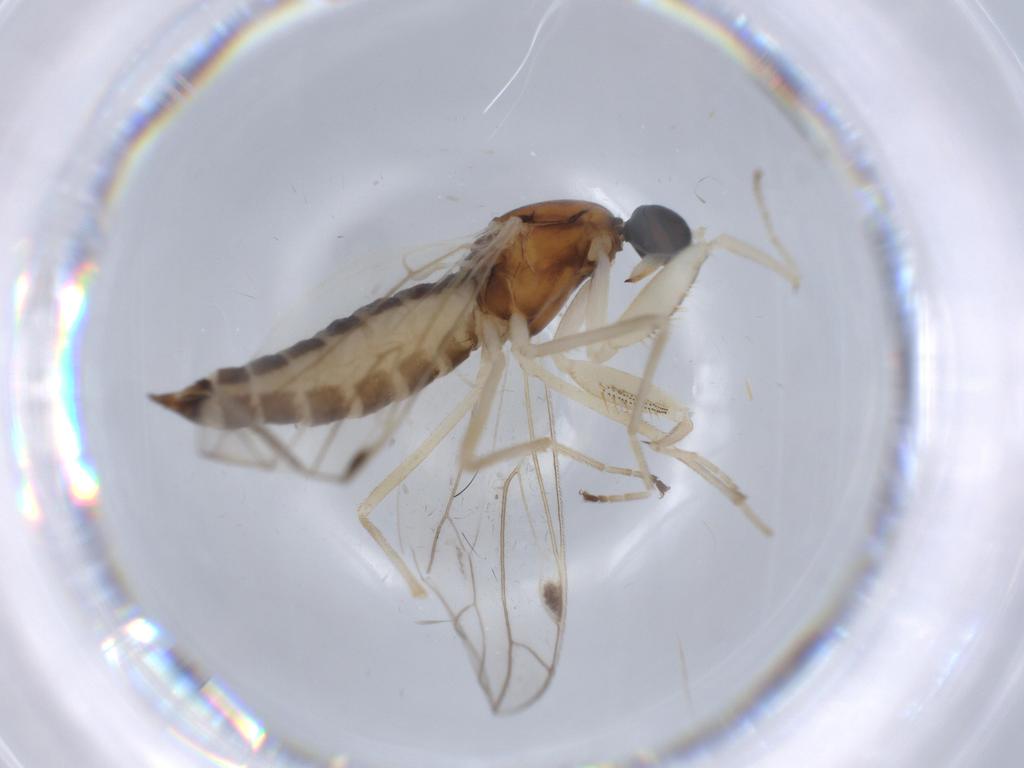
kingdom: Animalia
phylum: Arthropoda
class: Insecta
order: Diptera
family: Empididae
